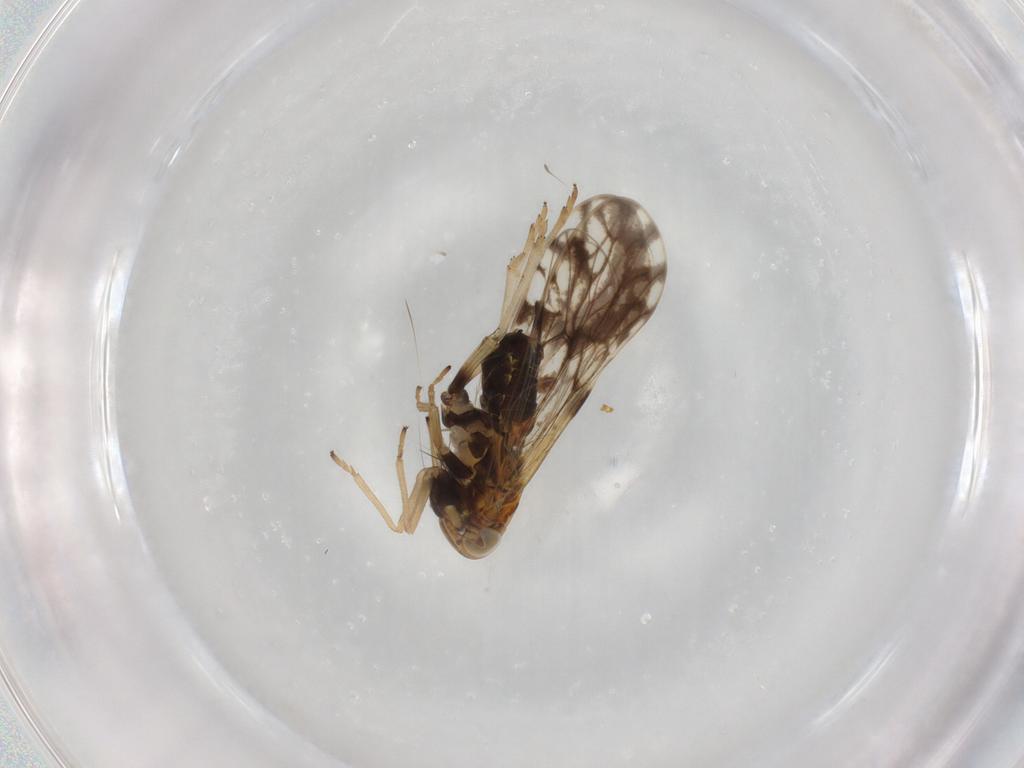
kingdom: Animalia
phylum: Arthropoda
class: Insecta
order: Hemiptera
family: Delphacidae
